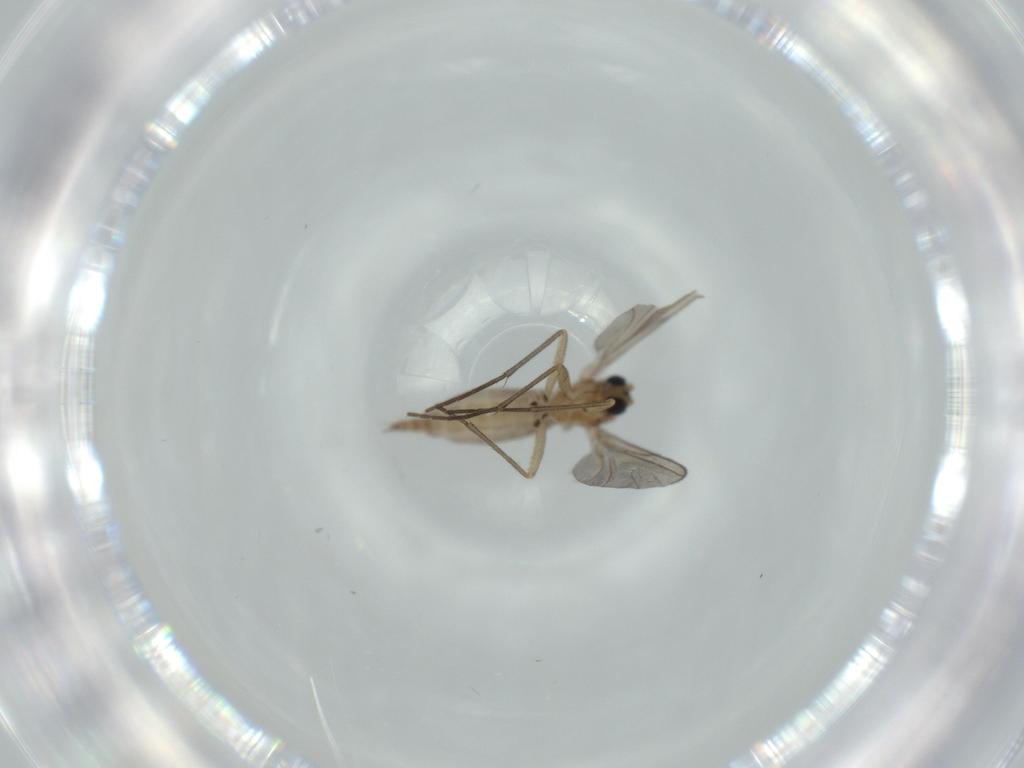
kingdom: Animalia
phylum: Arthropoda
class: Insecta
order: Diptera
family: Sciaridae
